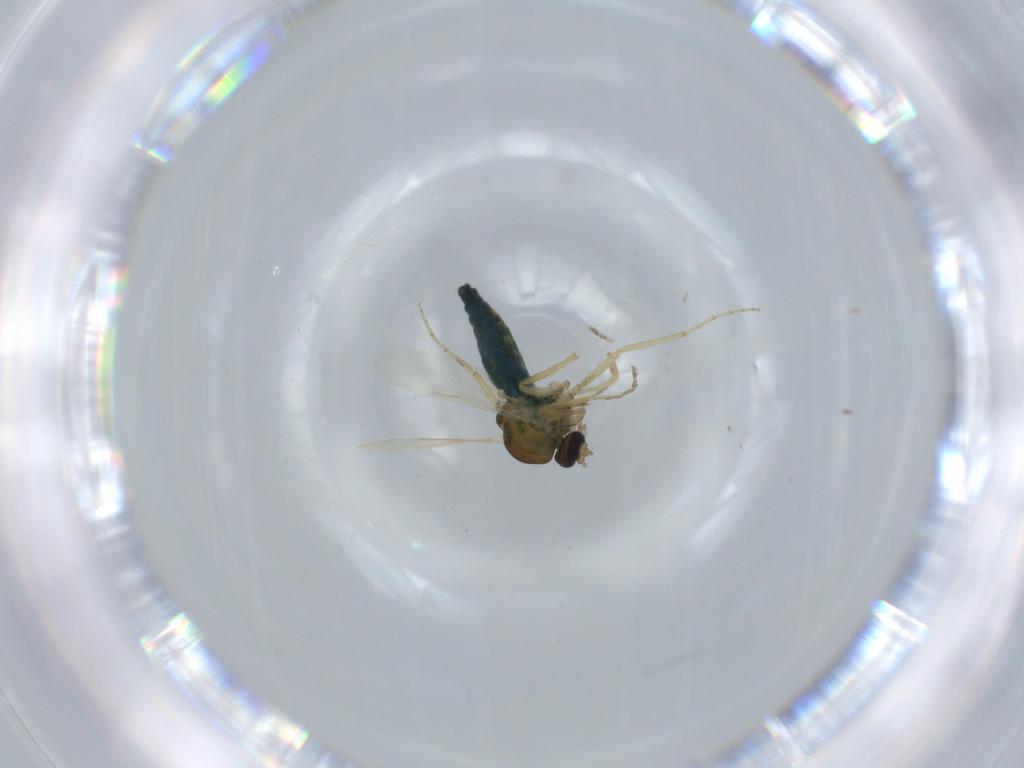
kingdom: Animalia
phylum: Arthropoda
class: Insecta
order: Diptera
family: Ceratopogonidae
